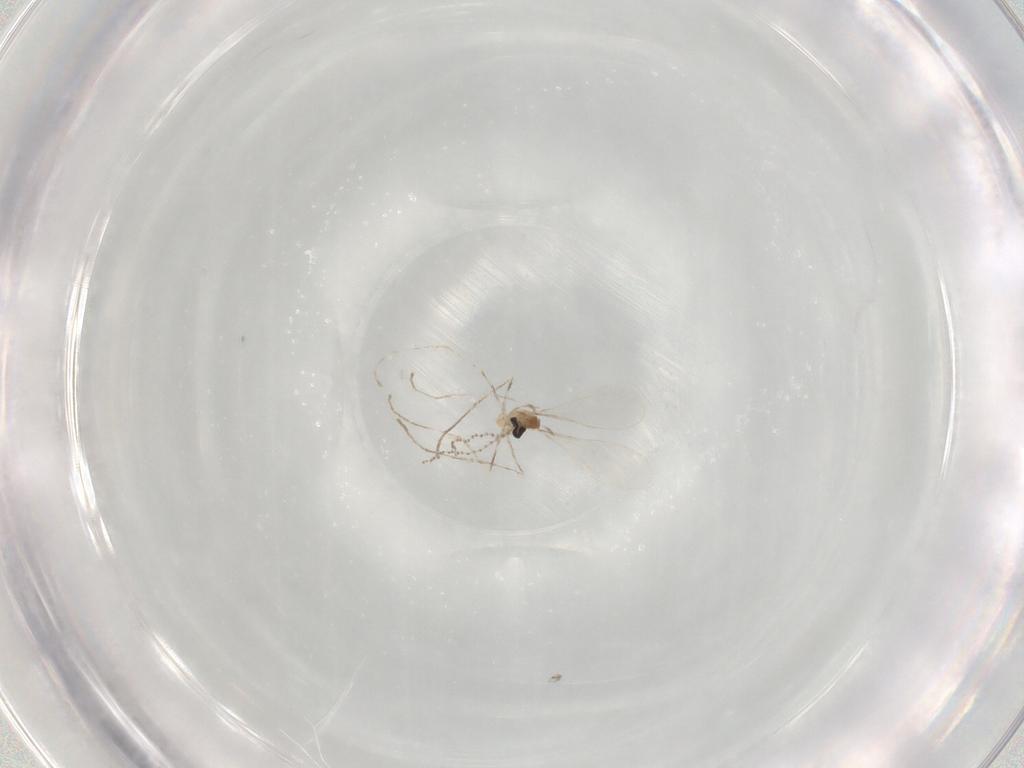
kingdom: Animalia
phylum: Arthropoda
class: Insecta
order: Diptera
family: Cecidomyiidae
